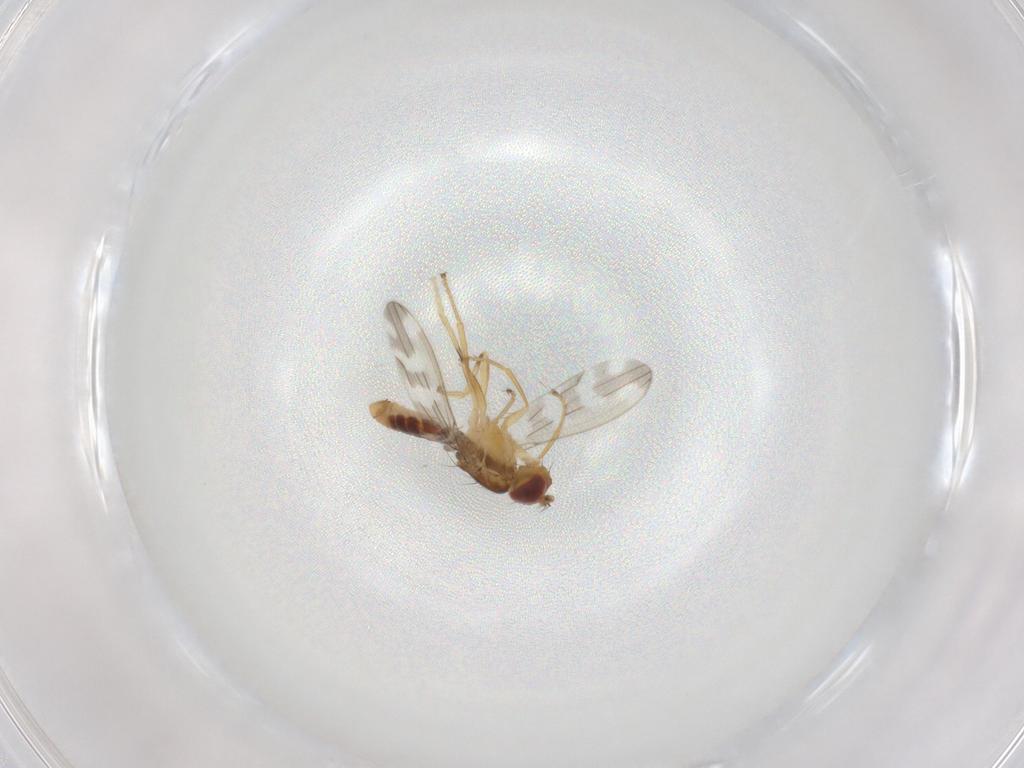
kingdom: Animalia
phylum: Arthropoda
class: Insecta
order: Diptera
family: Periscelididae
